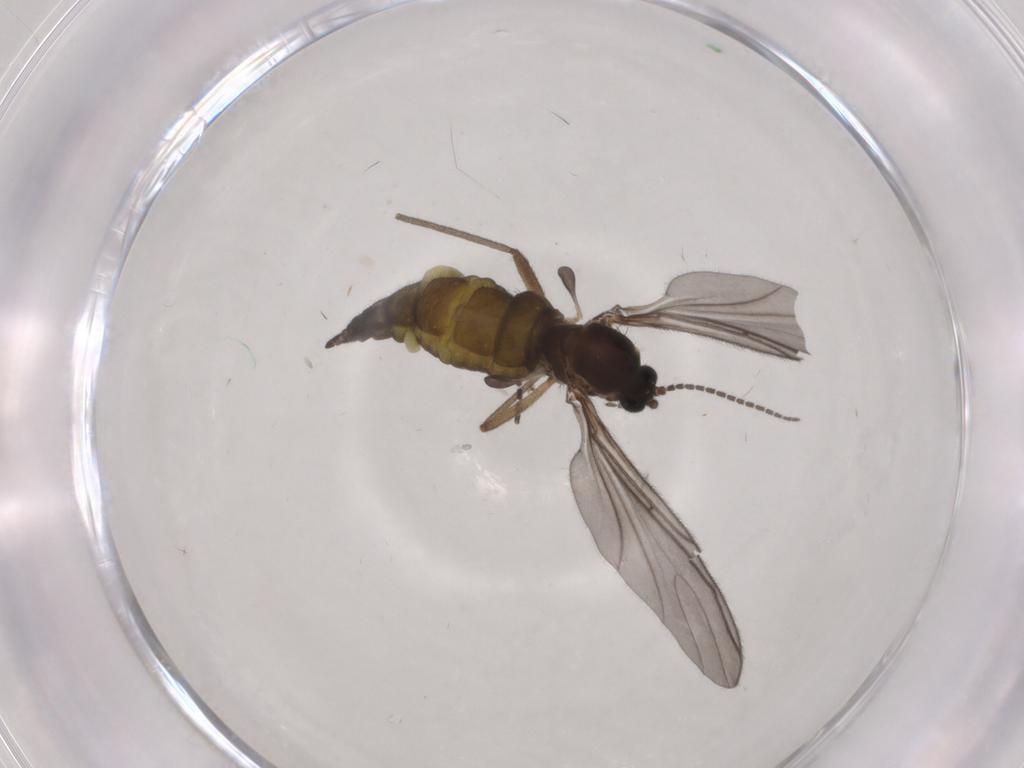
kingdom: Animalia
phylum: Arthropoda
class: Insecta
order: Diptera
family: Sciaridae
